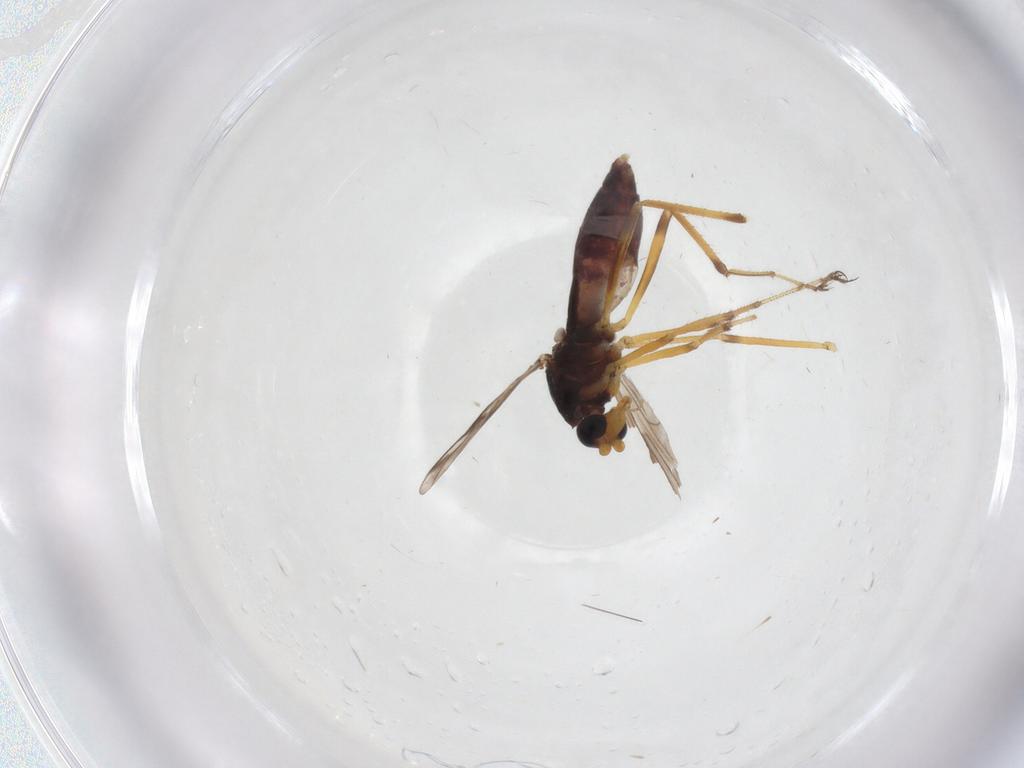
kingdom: Animalia
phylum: Arthropoda
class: Insecta
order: Diptera
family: Ceratopogonidae
